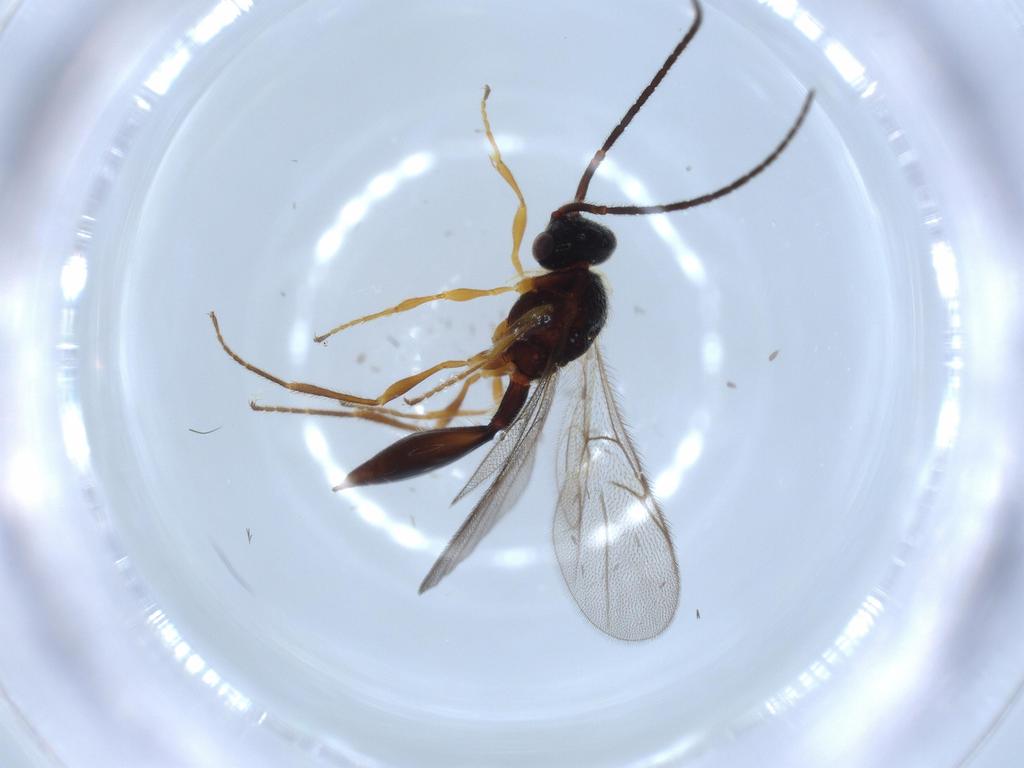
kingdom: Animalia
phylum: Arthropoda
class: Insecta
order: Hymenoptera
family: Diapriidae
